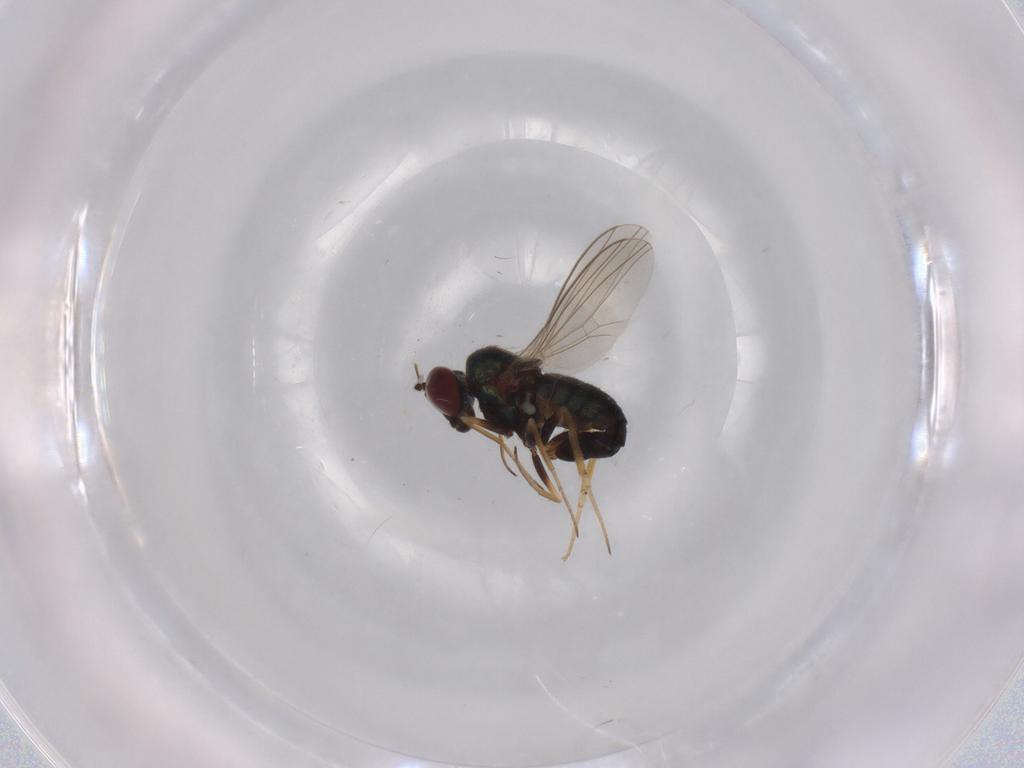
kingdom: Animalia
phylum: Arthropoda
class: Insecta
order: Diptera
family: Dolichopodidae
